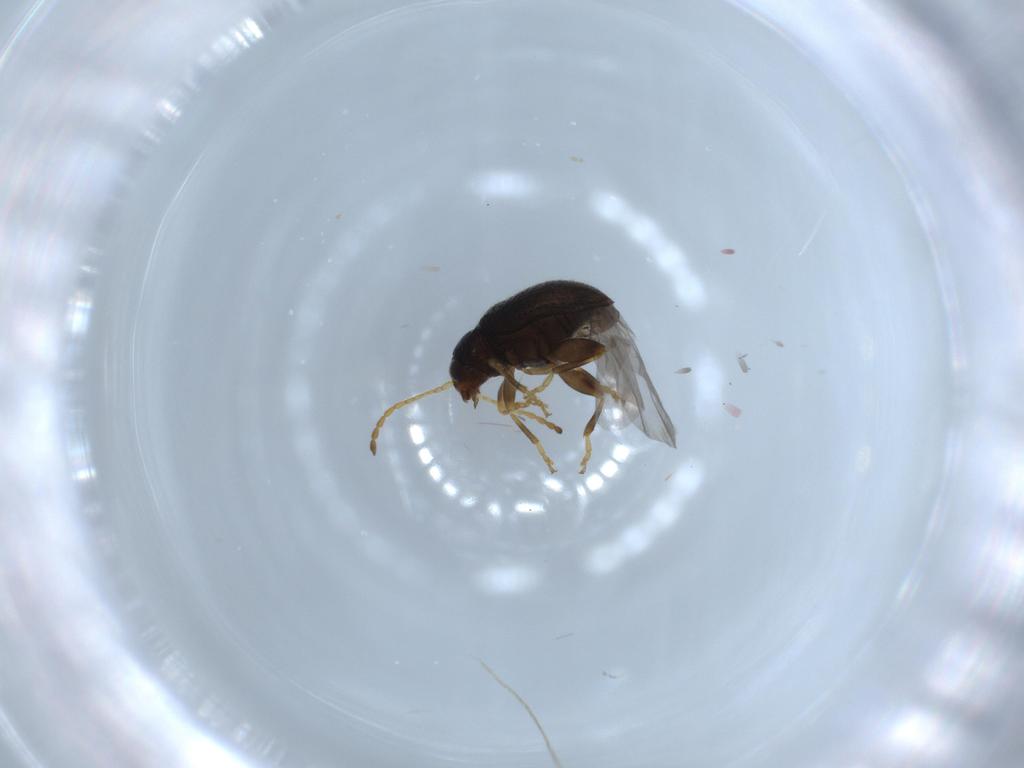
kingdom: Animalia
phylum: Arthropoda
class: Insecta
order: Coleoptera
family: Chrysomelidae
